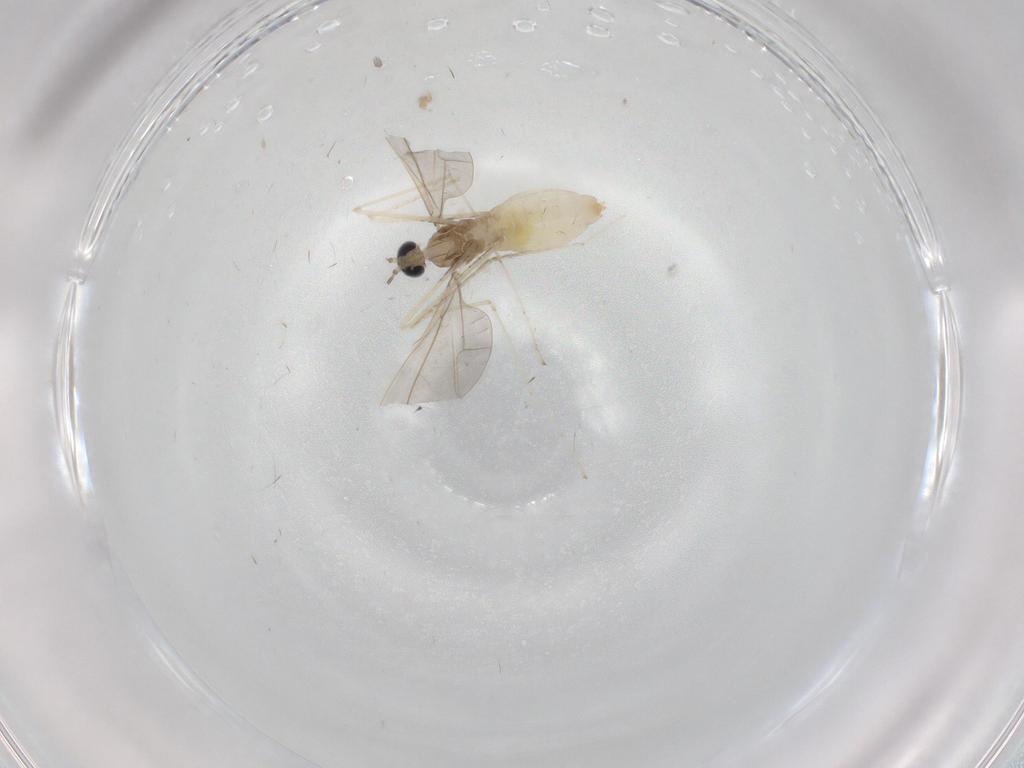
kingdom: Animalia
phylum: Arthropoda
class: Insecta
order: Diptera
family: Cecidomyiidae
